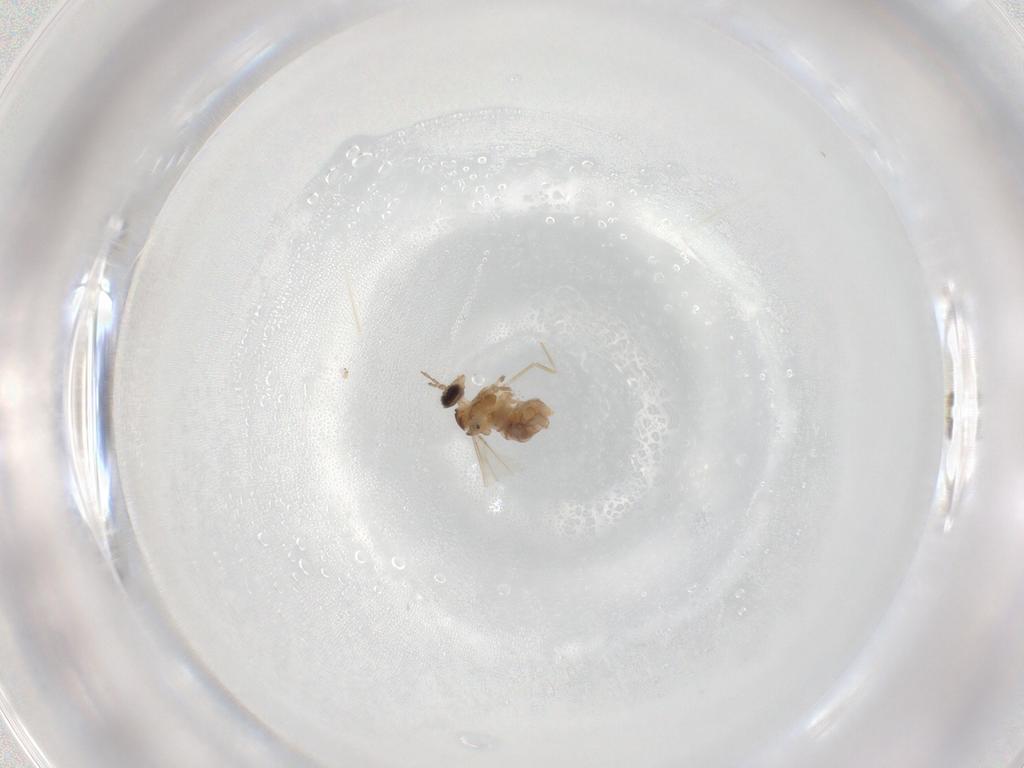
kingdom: Animalia
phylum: Arthropoda
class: Insecta
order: Diptera
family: Cecidomyiidae
